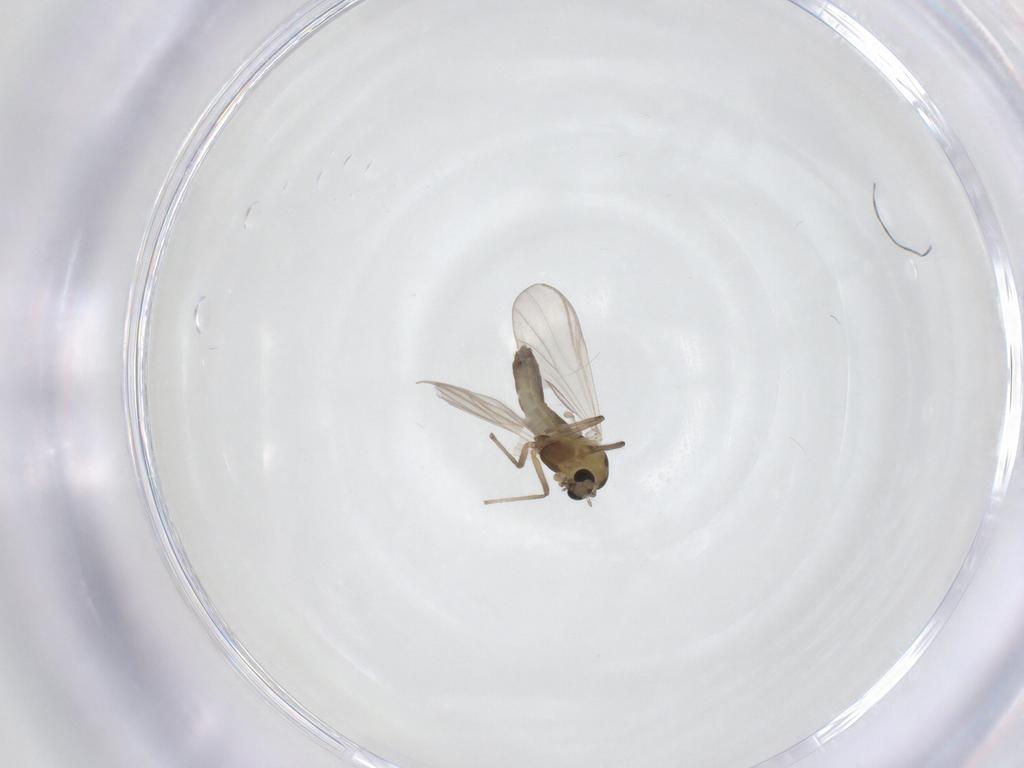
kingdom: Animalia
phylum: Arthropoda
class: Insecta
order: Diptera
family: Chironomidae
